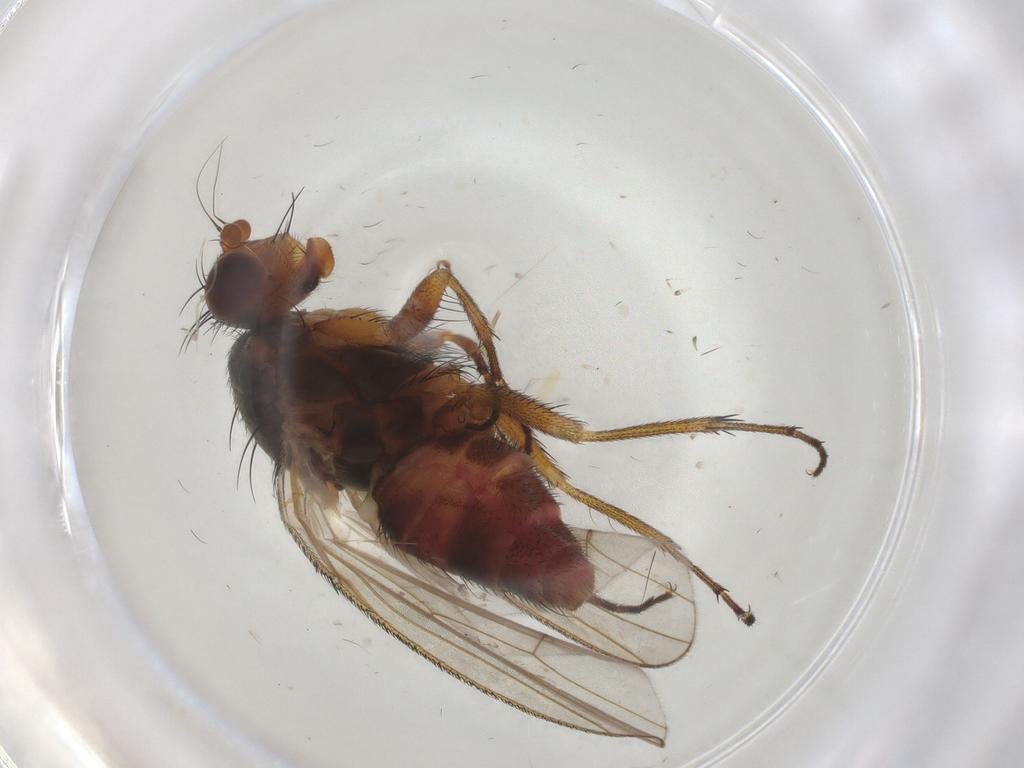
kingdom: Animalia
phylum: Arthropoda
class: Insecta
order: Diptera
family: Heleomyzidae
